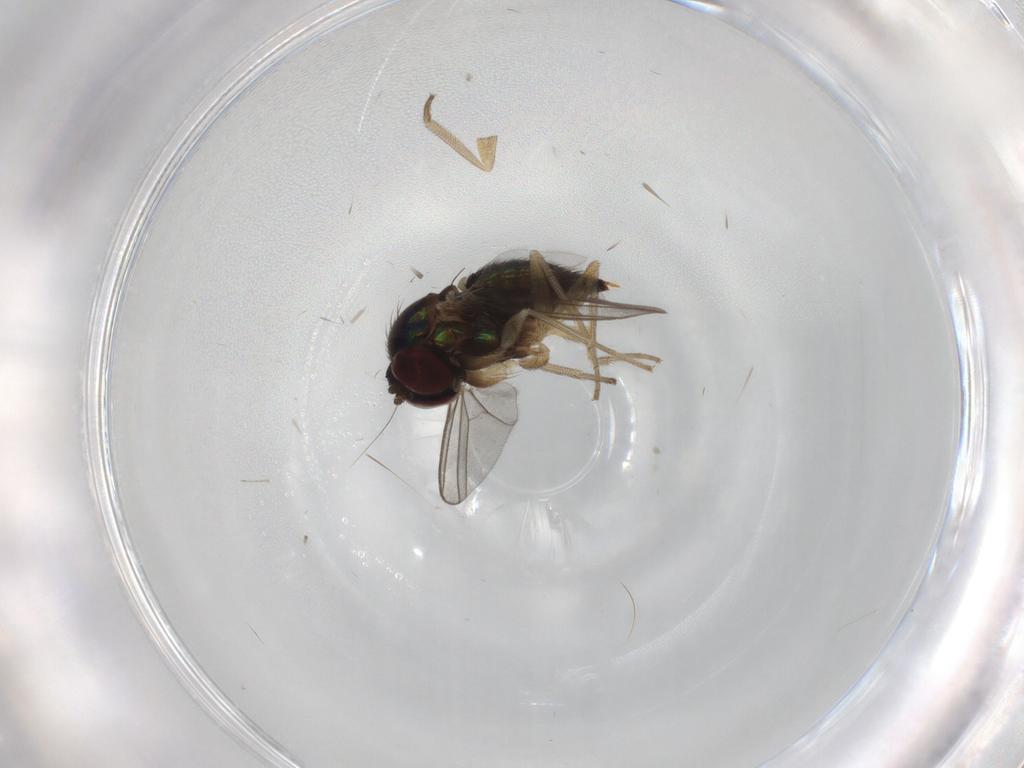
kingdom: Animalia
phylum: Arthropoda
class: Insecta
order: Diptera
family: Dolichopodidae
